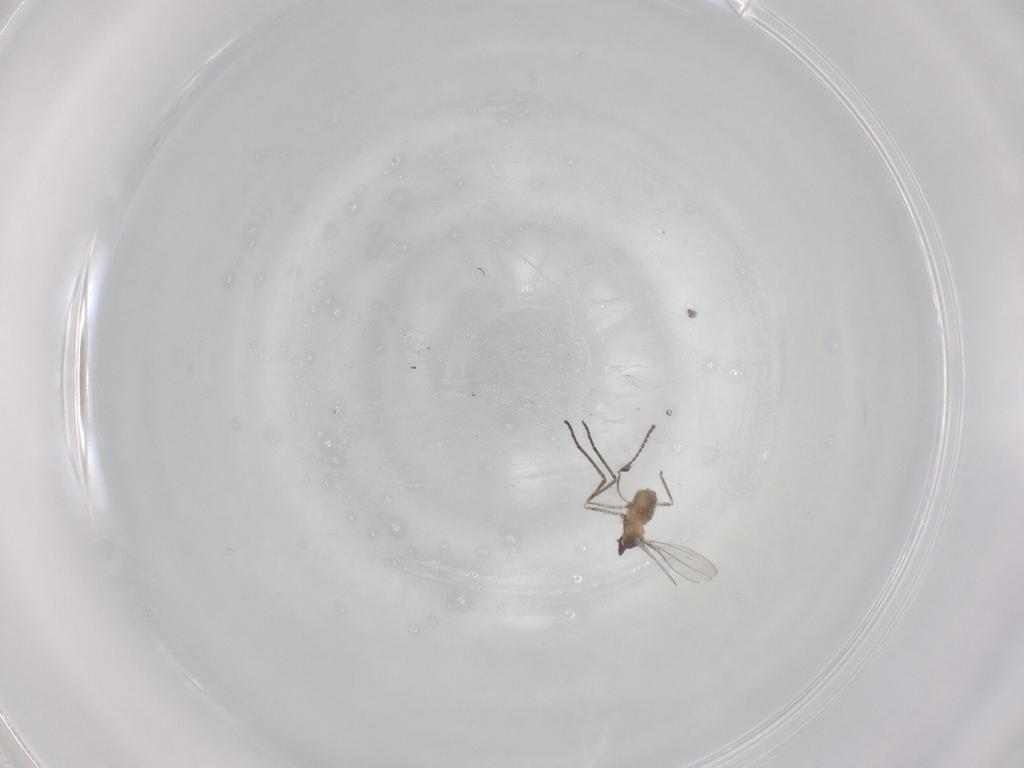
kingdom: Animalia
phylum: Arthropoda
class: Insecta
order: Diptera
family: Cecidomyiidae
